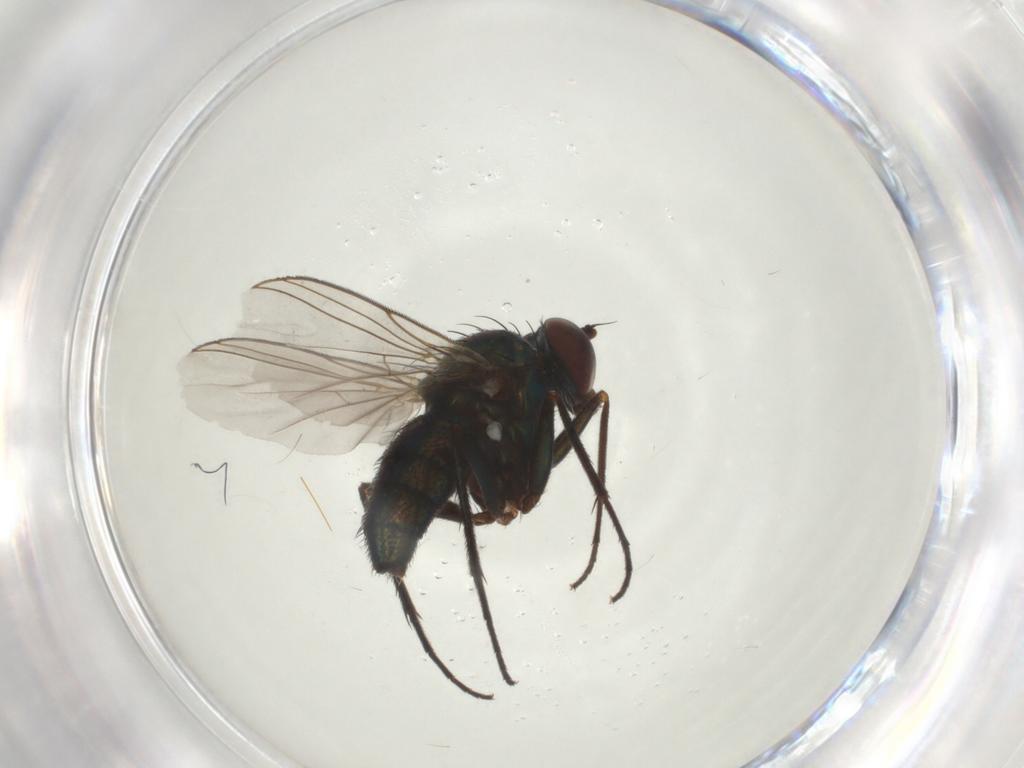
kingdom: Animalia
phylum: Arthropoda
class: Insecta
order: Diptera
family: Dolichopodidae
